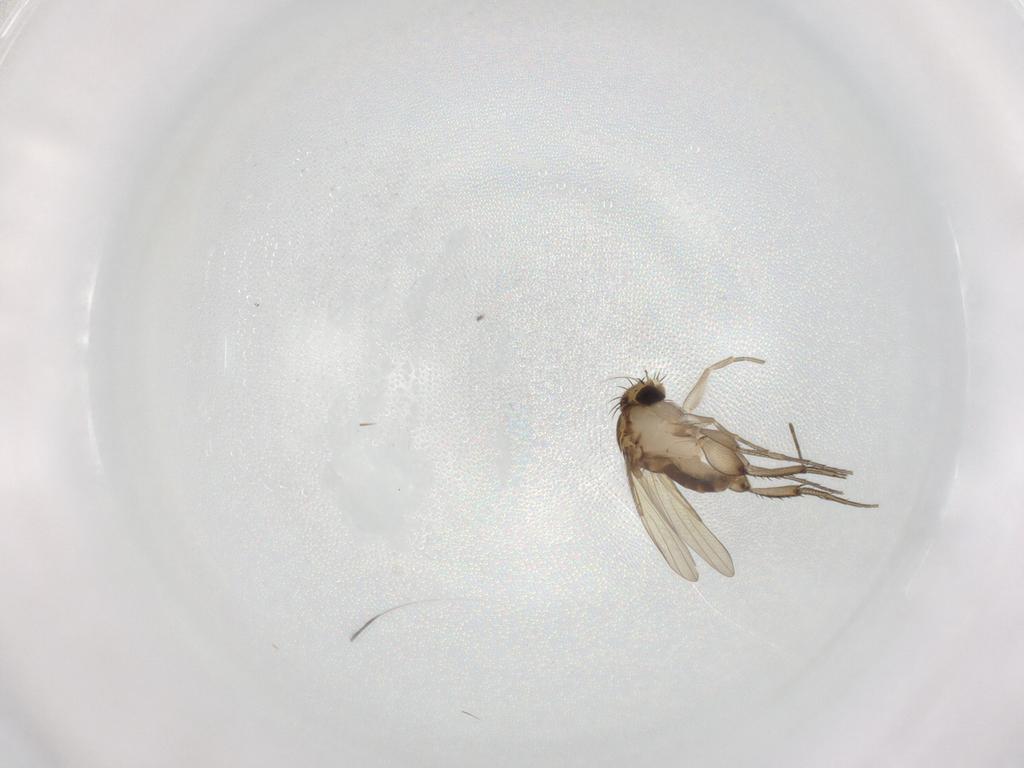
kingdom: Animalia
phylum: Arthropoda
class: Insecta
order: Diptera
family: Phoridae
